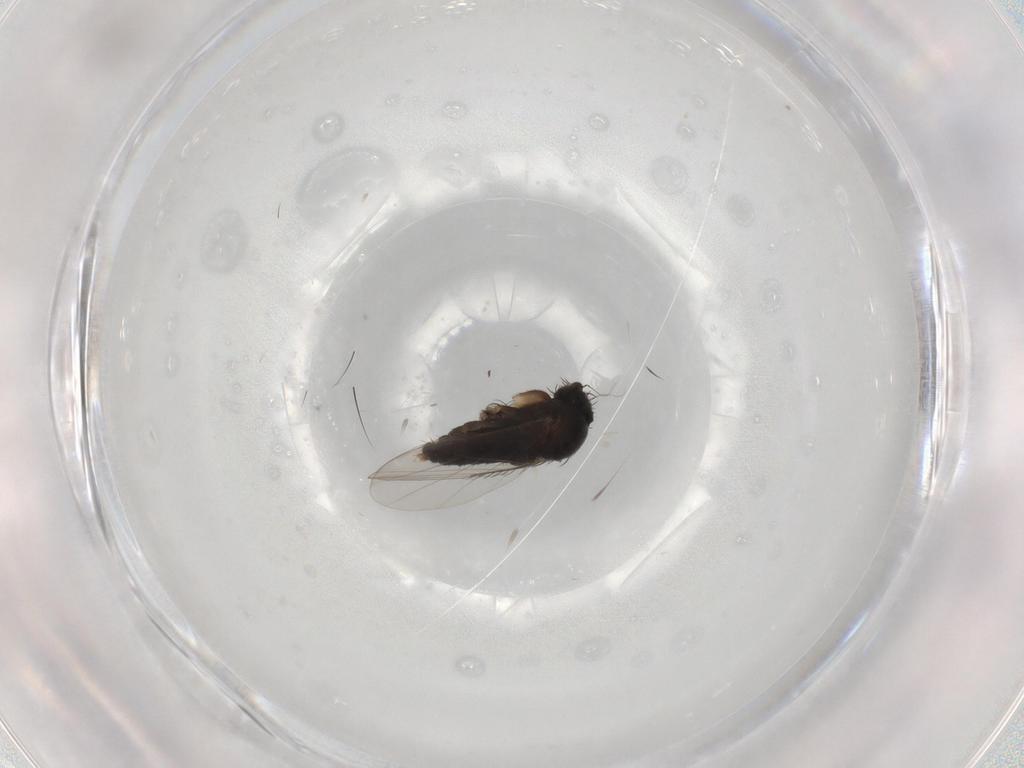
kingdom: Animalia
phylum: Arthropoda
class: Insecta
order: Diptera
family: Phoridae
